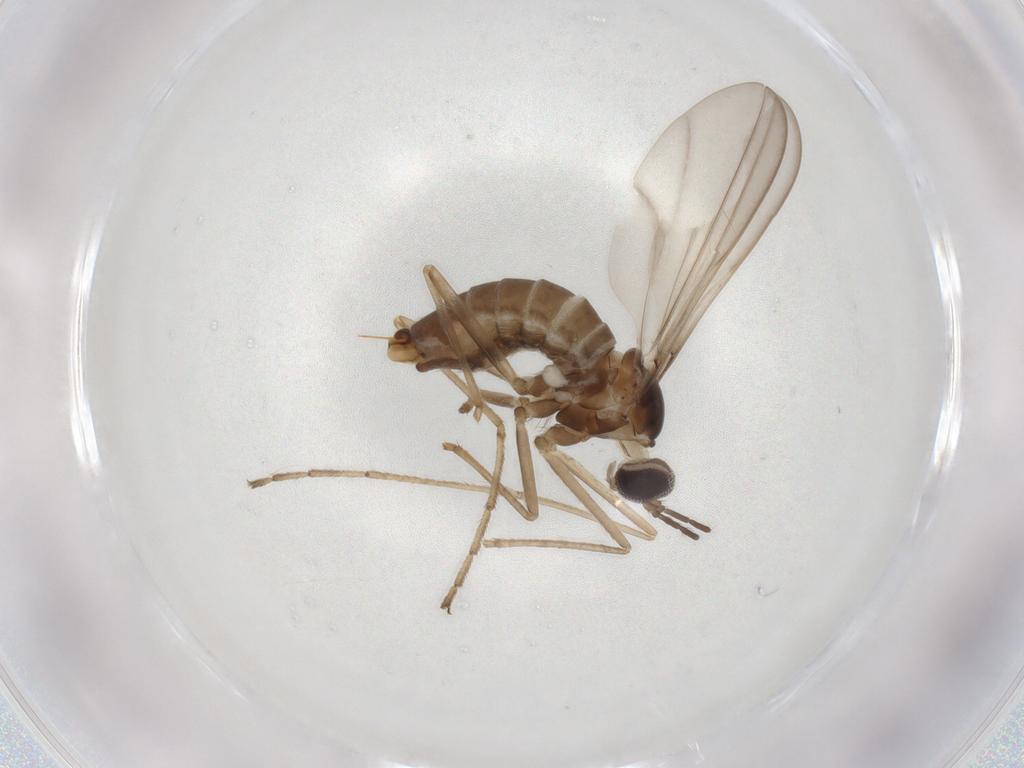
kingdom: Animalia
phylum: Arthropoda
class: Insecta
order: Diptera
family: Cecidomyiidae
